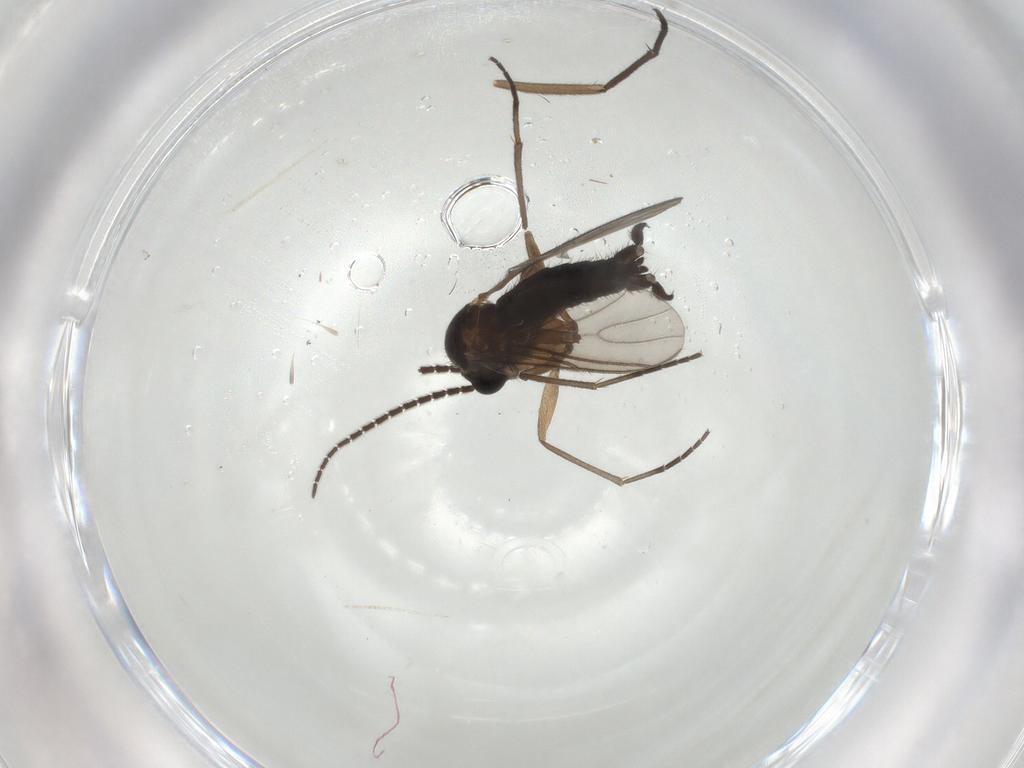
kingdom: Animalia
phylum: Arthropoda
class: Insecta
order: Diptera
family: Sciaridae
